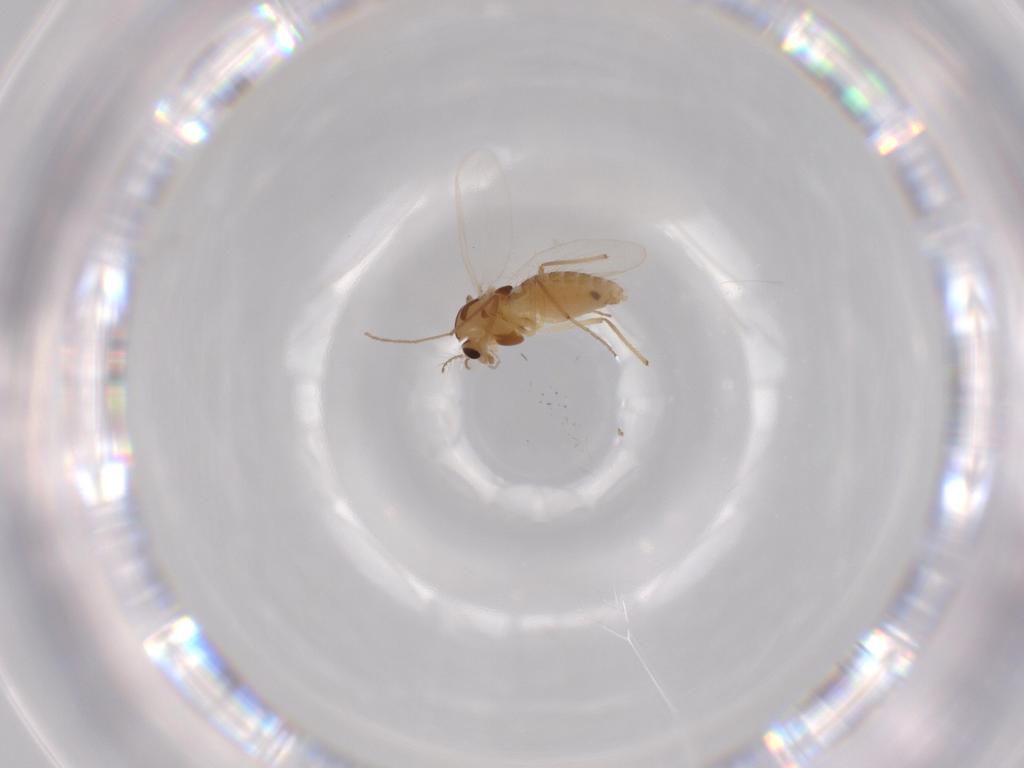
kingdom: Animalia
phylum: Arthropoda
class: Insecta
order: Diptera
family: Chironomidae
